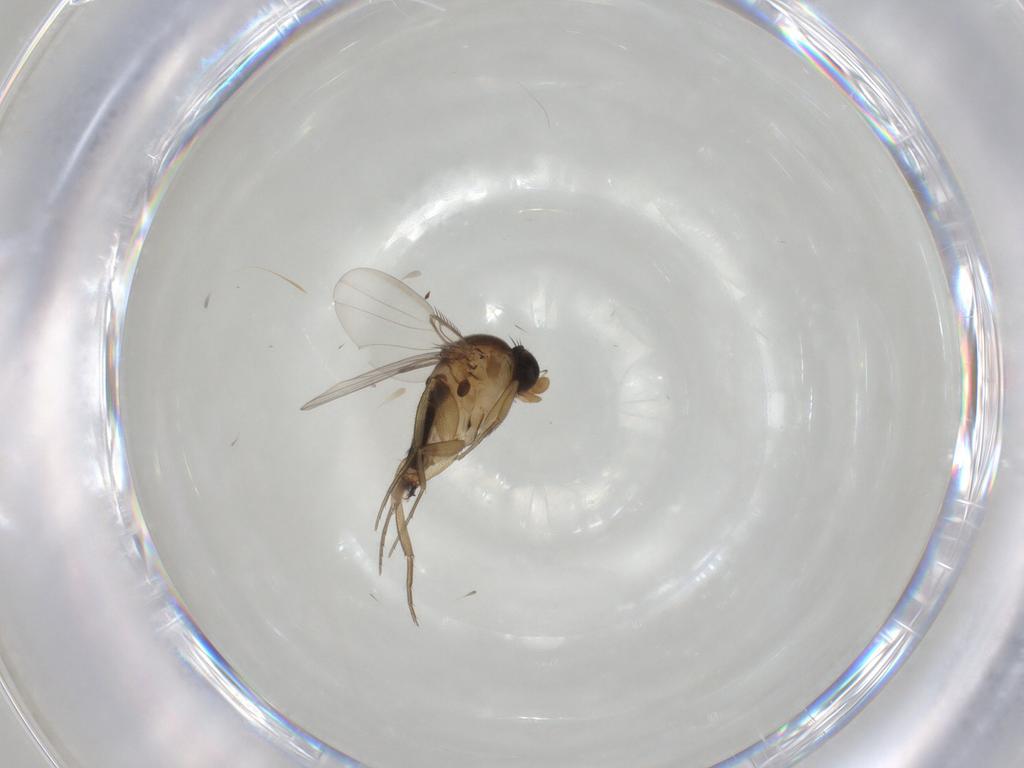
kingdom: Animalia
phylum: Arthropoda
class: Insecta
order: Diptera
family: Phoridae
